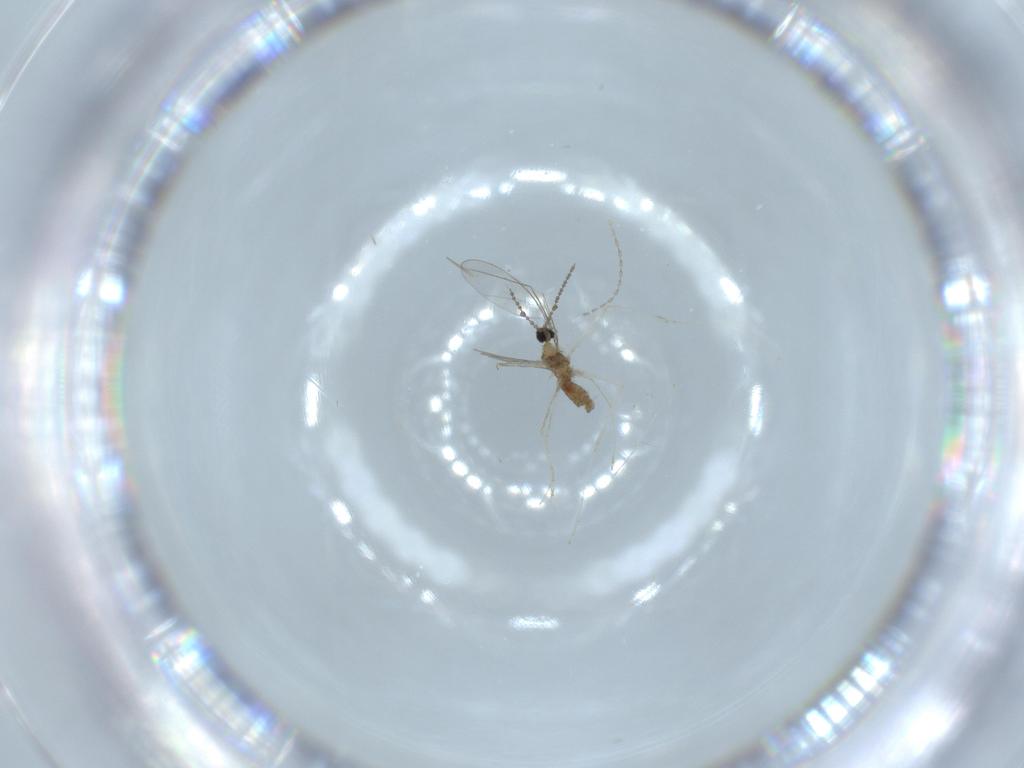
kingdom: Animalia
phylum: Arthropoda
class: Insecta
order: Diptera
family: Cecidomyiidae
